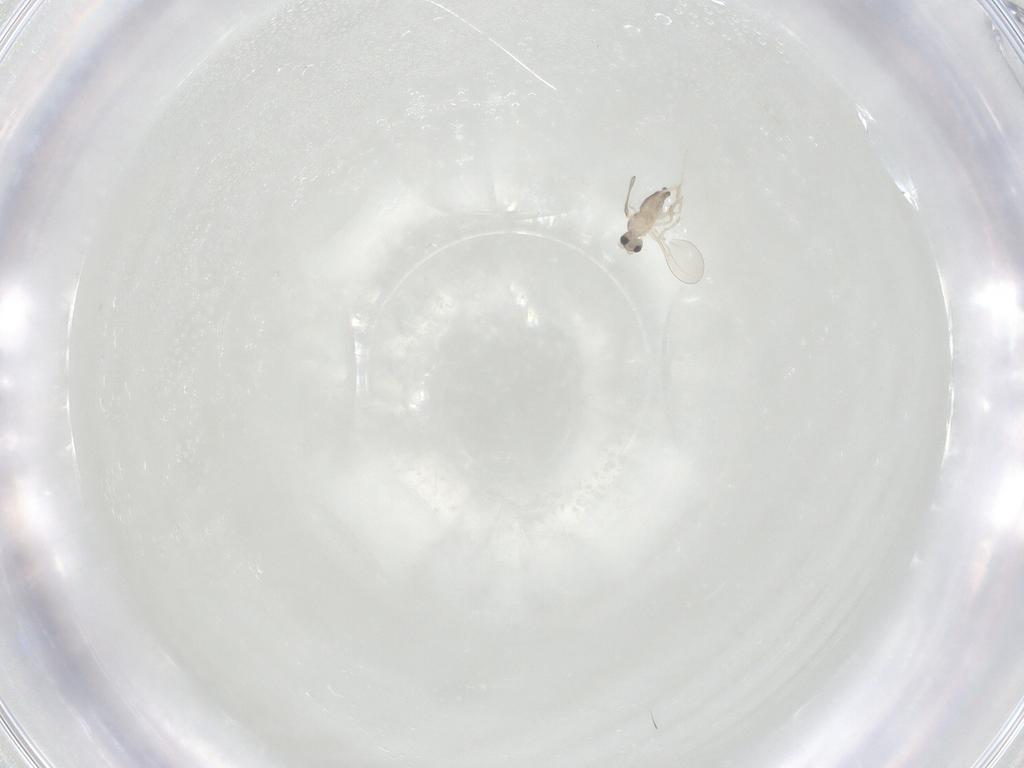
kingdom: Animalia
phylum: Arthropoda
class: Insecta
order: Diptera
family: Cecidomyiidae
